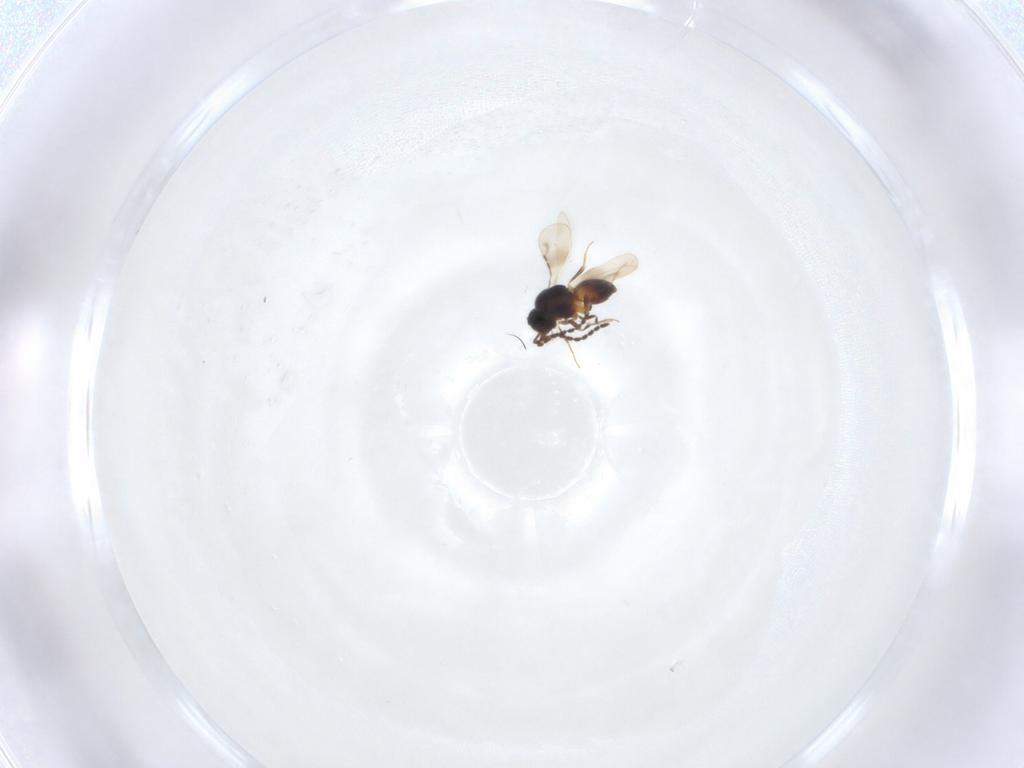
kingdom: Animalia
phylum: Arthropoda
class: Insecta
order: Hymenoptera
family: Ceraphronidae
